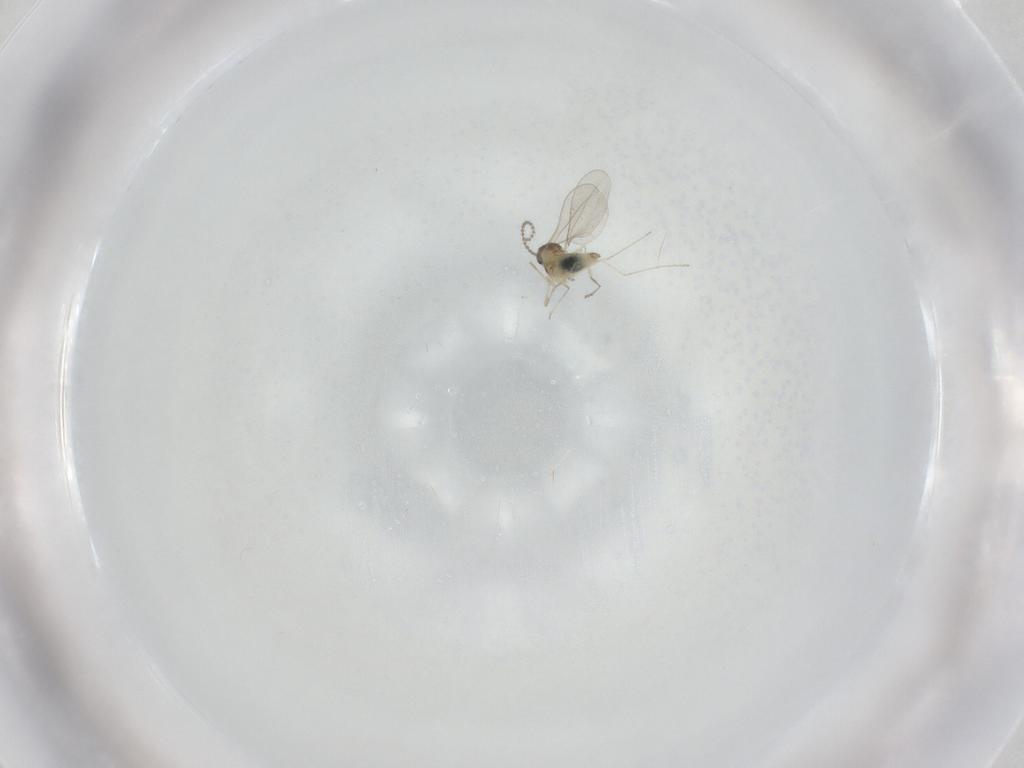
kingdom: Animalia
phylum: Arthropoda
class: Insecta
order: Diptera
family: Cecidomyiidae
